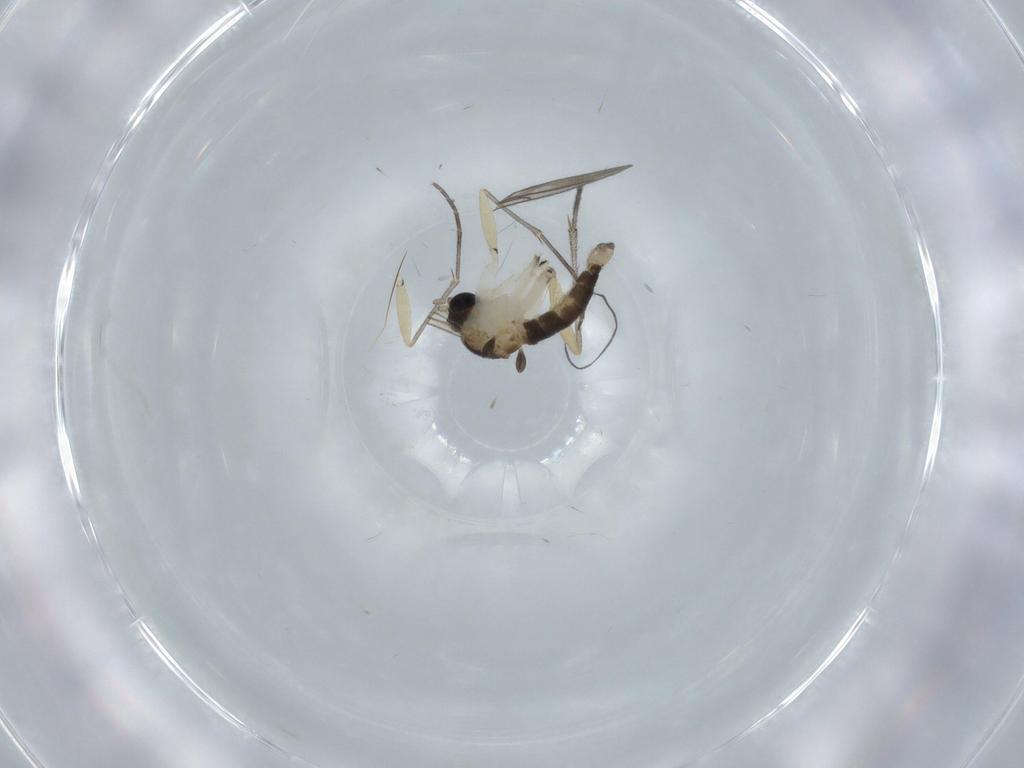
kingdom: Animalia
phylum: Arthropoda
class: Insecta
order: Diptera
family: Sciaridae
